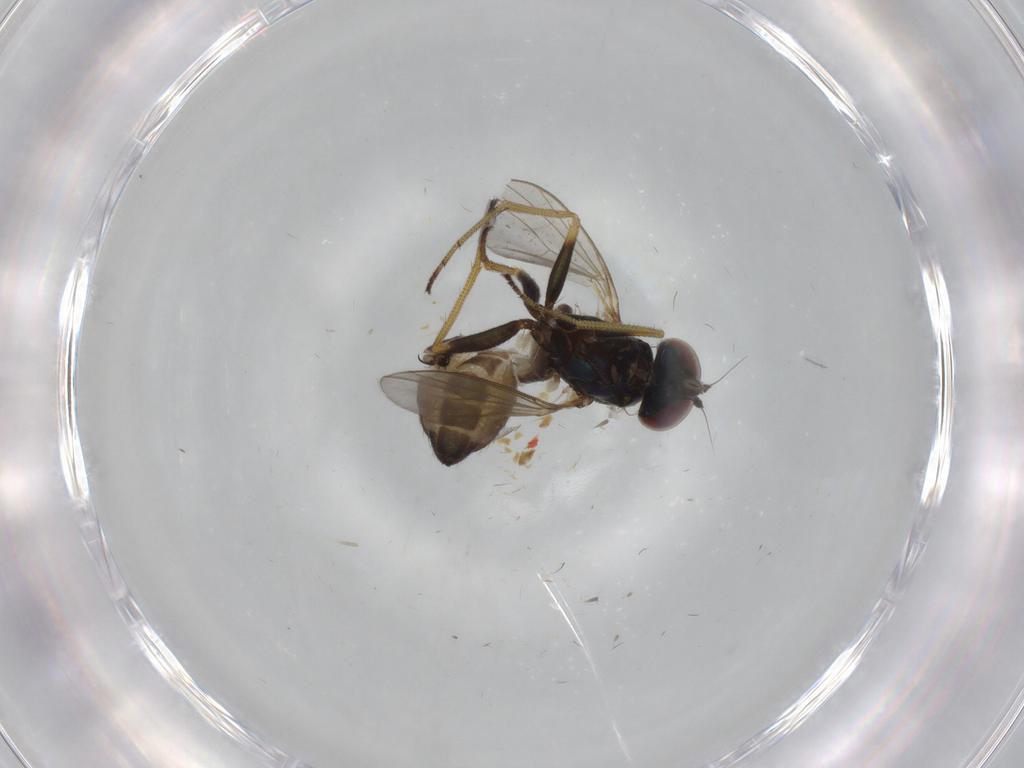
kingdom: Animalia
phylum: Arthropoda
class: Insecta
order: Diptera
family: Dolichopodidae
